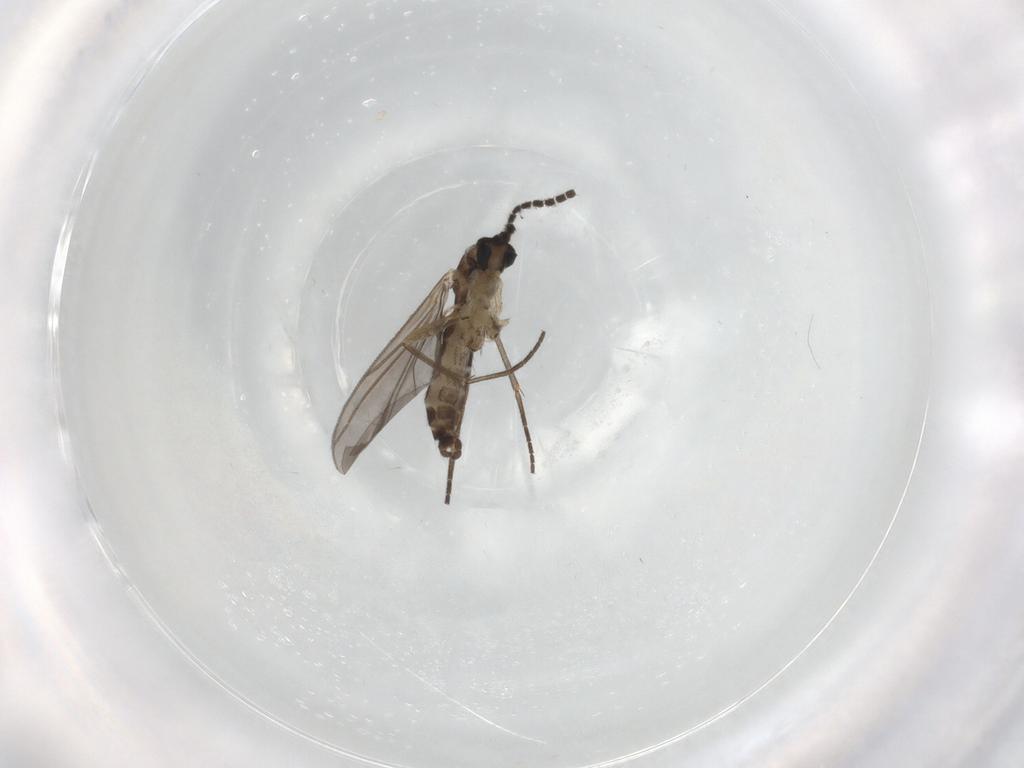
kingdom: Animalia
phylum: Arthropoda
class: Insecta
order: Diptera
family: Sciaridae
